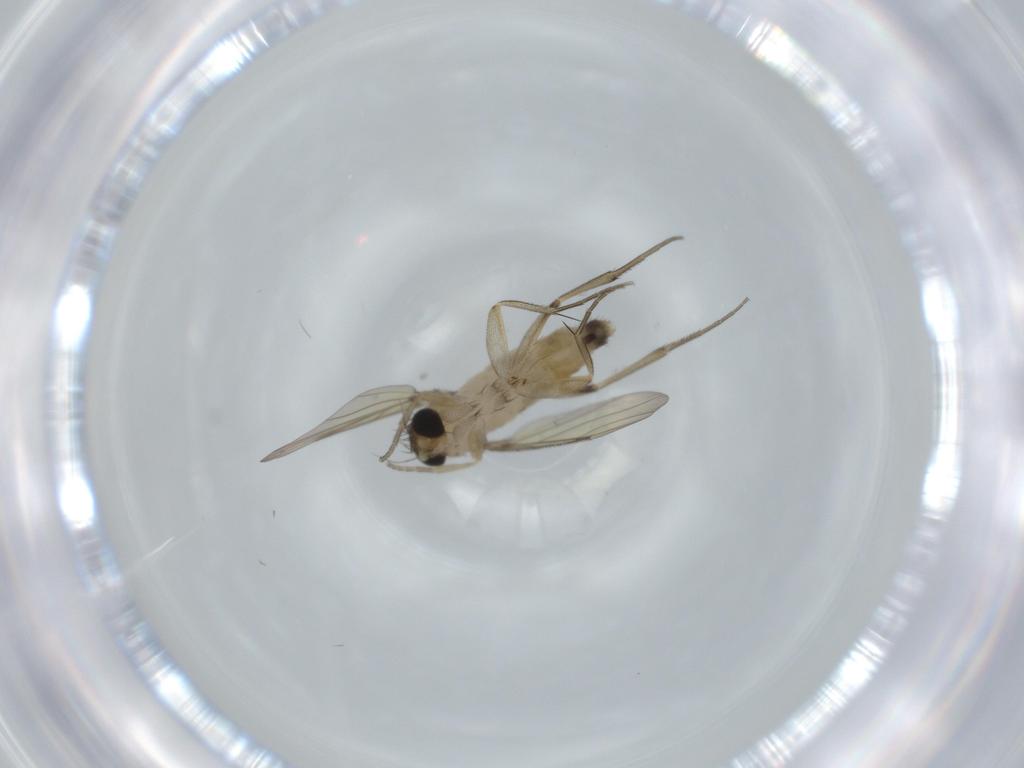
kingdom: Animalia
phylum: Arthropoda
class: Insecta
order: Diptera
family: Phoridae
